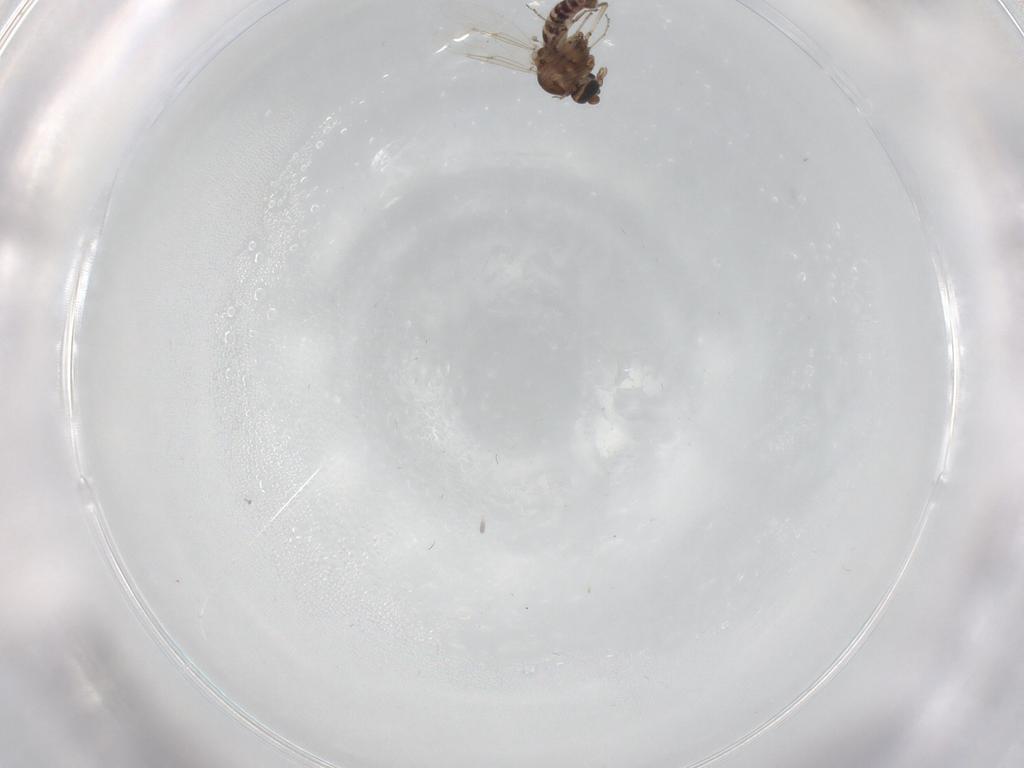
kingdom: Animalia
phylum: Arthropoda
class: Insecta
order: Diptera
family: Ceratopogonidae
